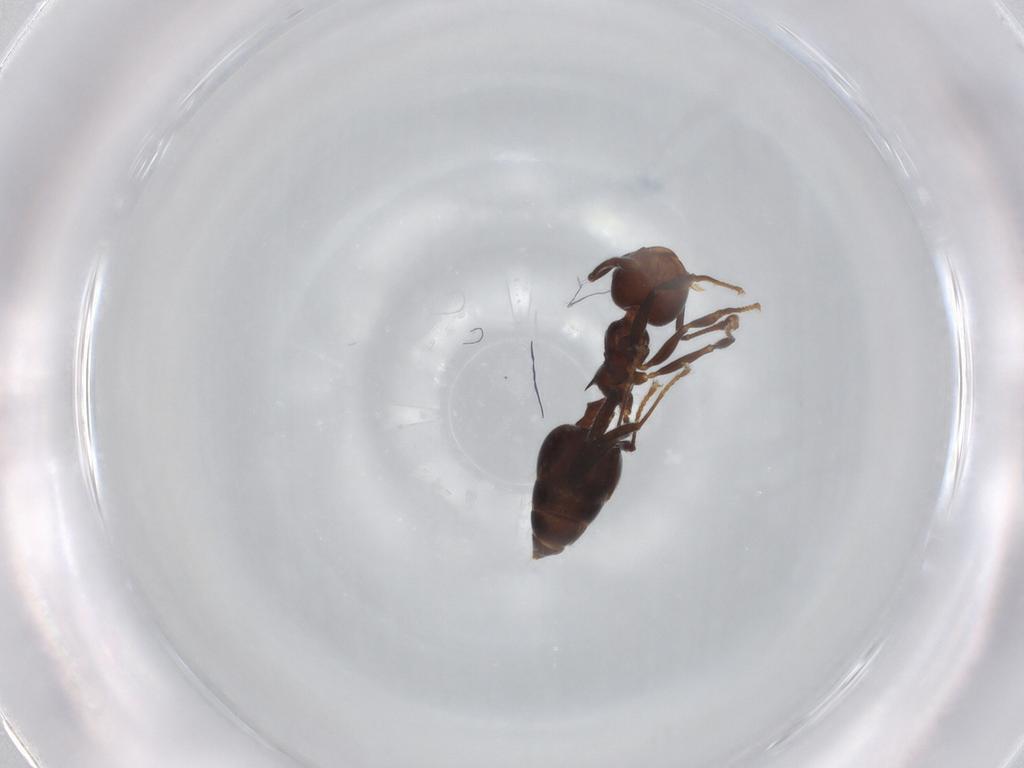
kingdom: Animalia
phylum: Arthropoda
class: Insecta
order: Hymenoptera
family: Formicidae
